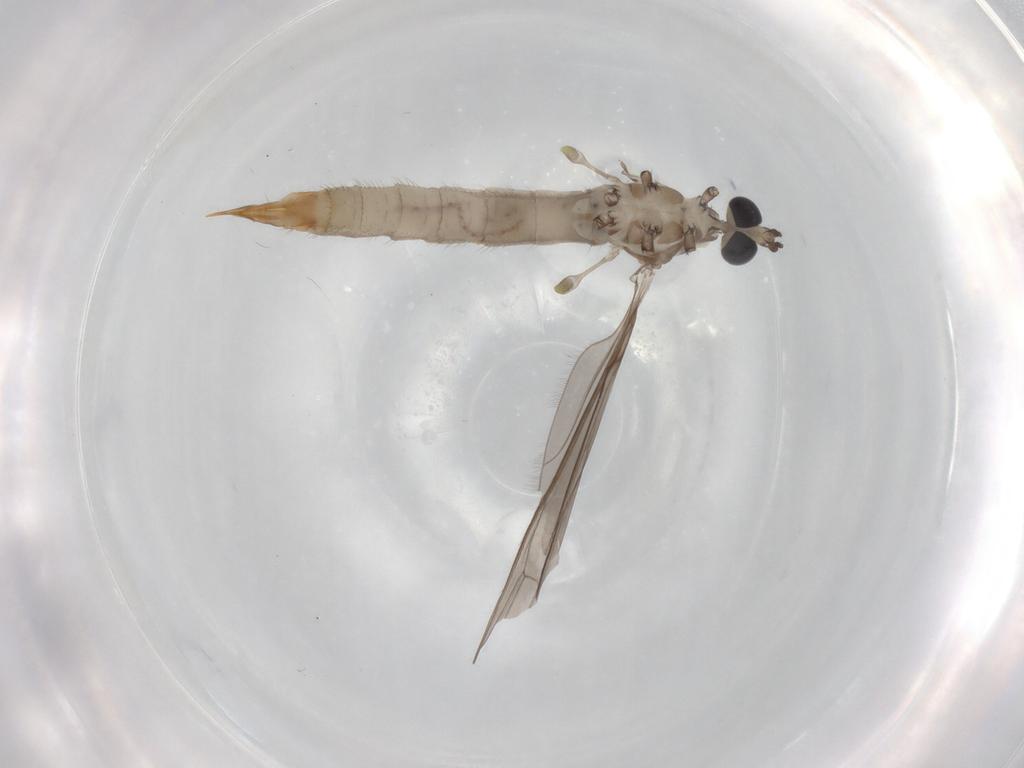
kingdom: Animalia
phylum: Arthropoda
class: Insecta
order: Diptera
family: Limoniidae
